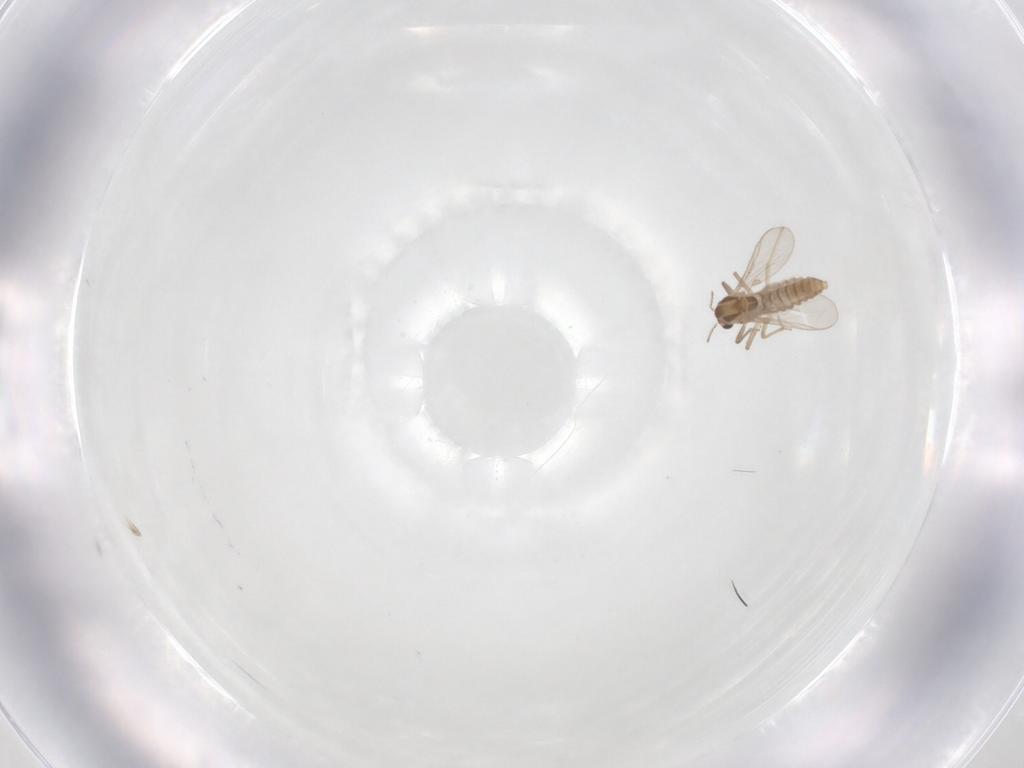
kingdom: Animalia
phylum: Arthropoda
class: Insecta
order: Diptera
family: Chironomidae
